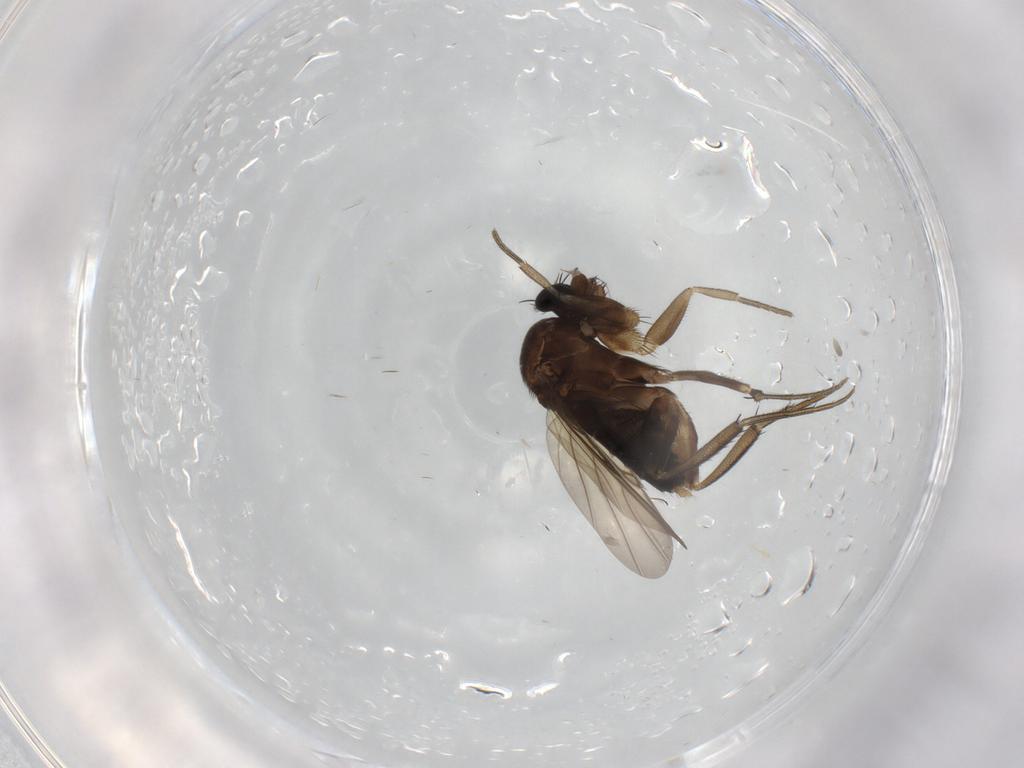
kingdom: Animalia
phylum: Arthropoda
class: Insecta
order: Diptera
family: Phoridae
